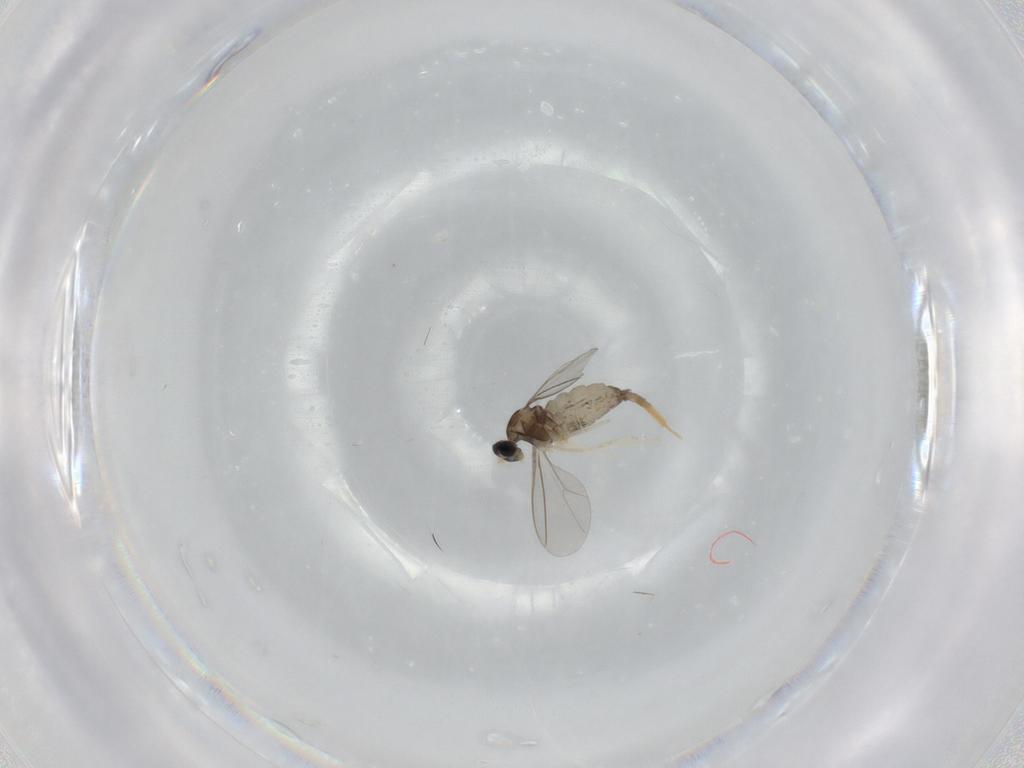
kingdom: Animalia
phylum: Arthropoda
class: Insecta
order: Diptera
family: Cecidomyiidae
